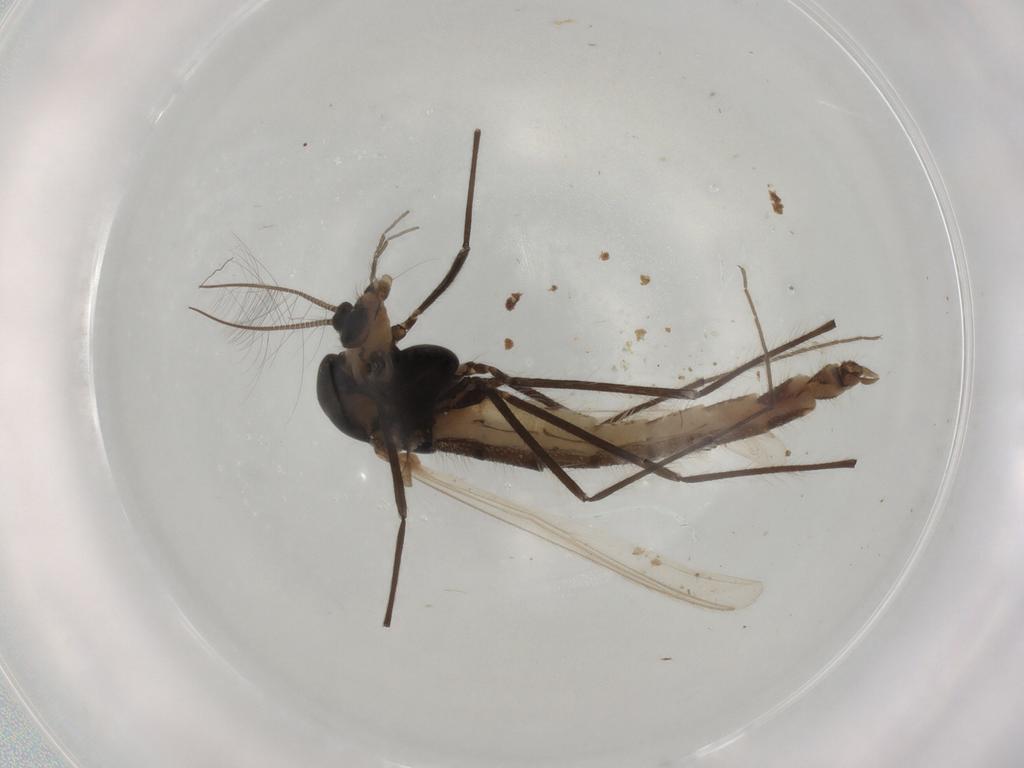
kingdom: Animalia
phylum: Arthropoda
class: Insecta
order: Diptera
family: Chironomidae
